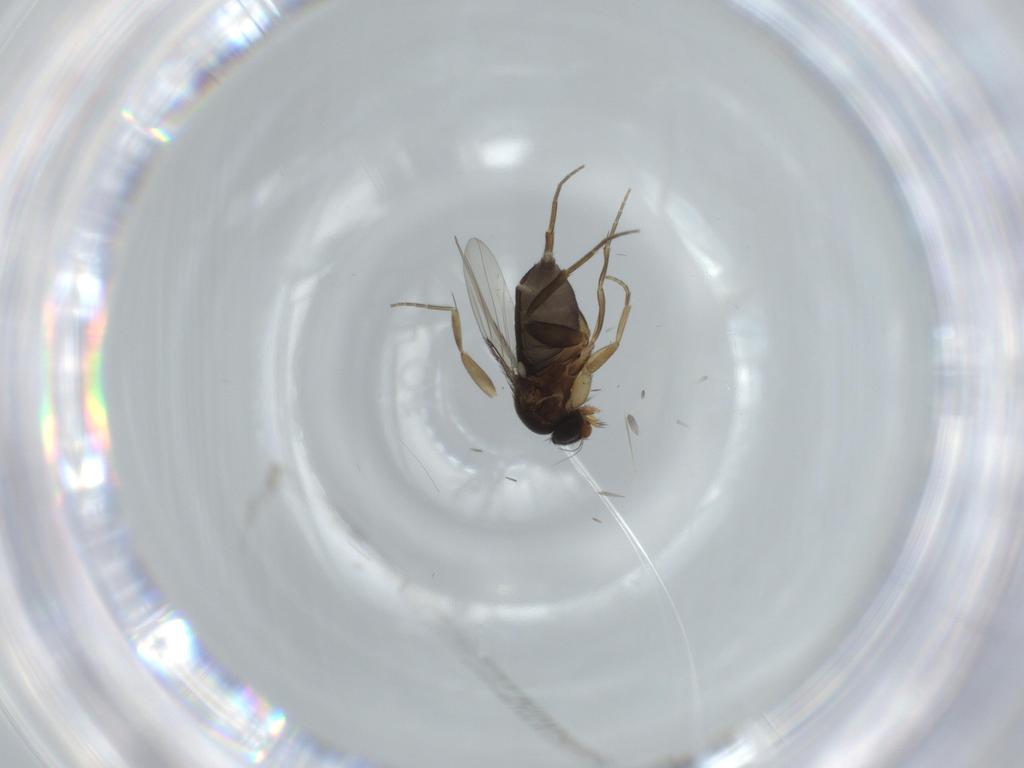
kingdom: Animalia
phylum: Arthropoda
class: Insecta
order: Diptera
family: Phoridae
